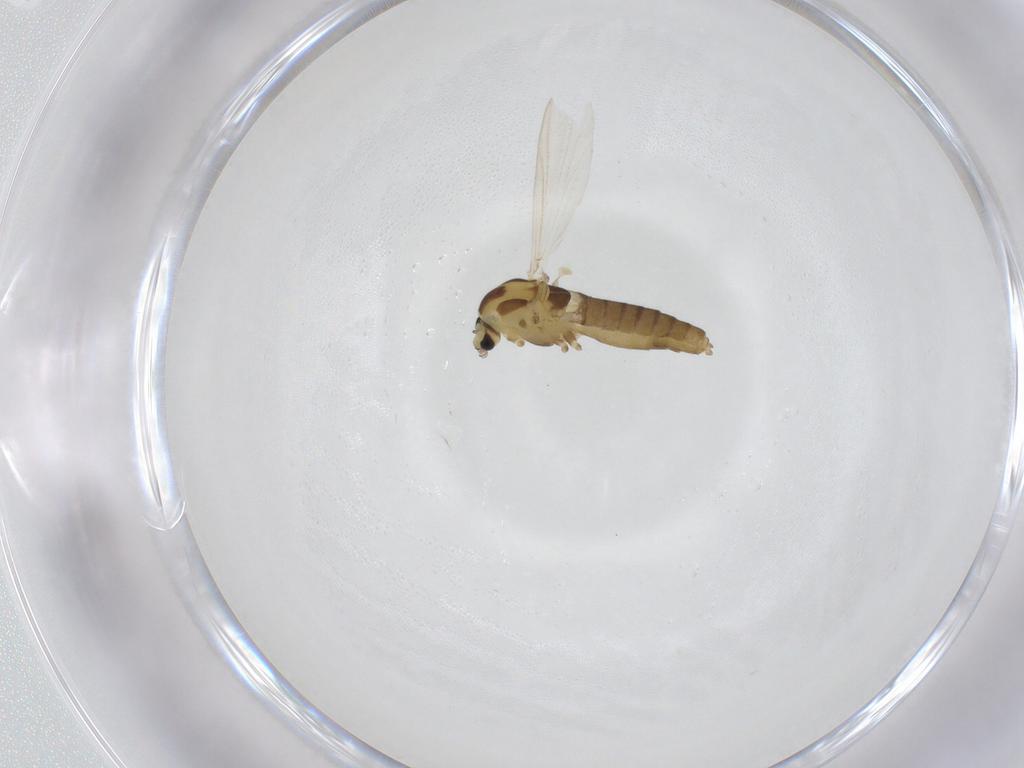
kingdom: Animalia
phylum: Arthropoda
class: Insecta
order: Diptera
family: Chironomidae
